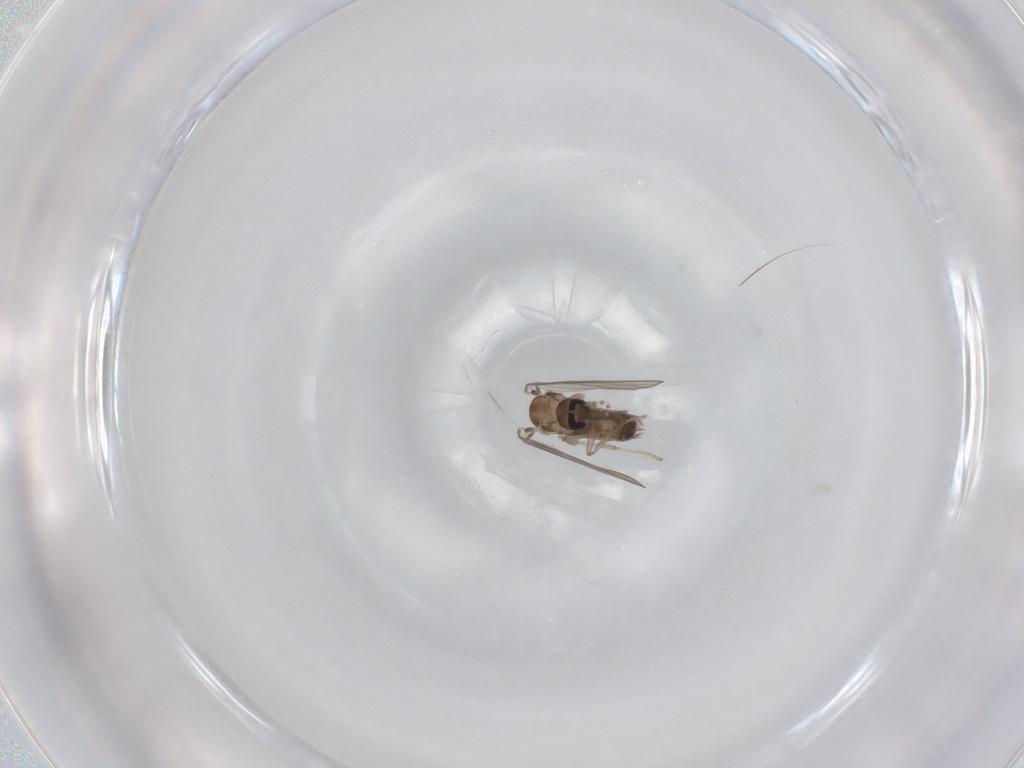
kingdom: Animalia
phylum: Arthropoda
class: Insecta
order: Diptera
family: Psychodidae
